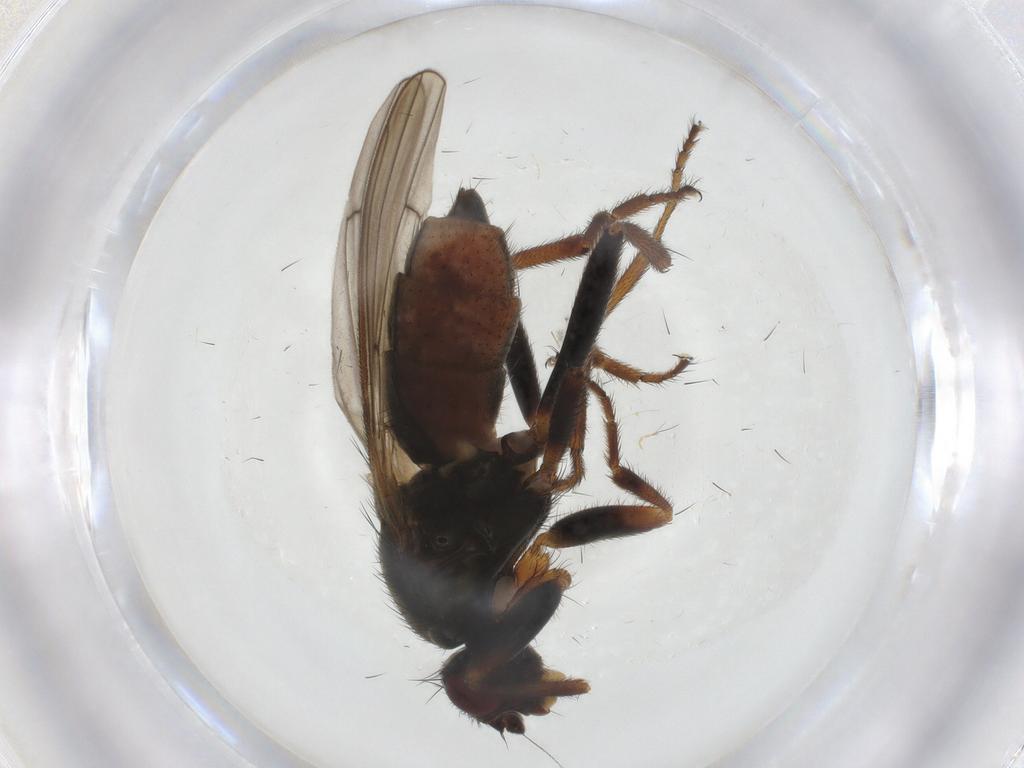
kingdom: Animalia
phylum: Arthropoda
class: Insecta
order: Diptera
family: Sphaeroceridae
